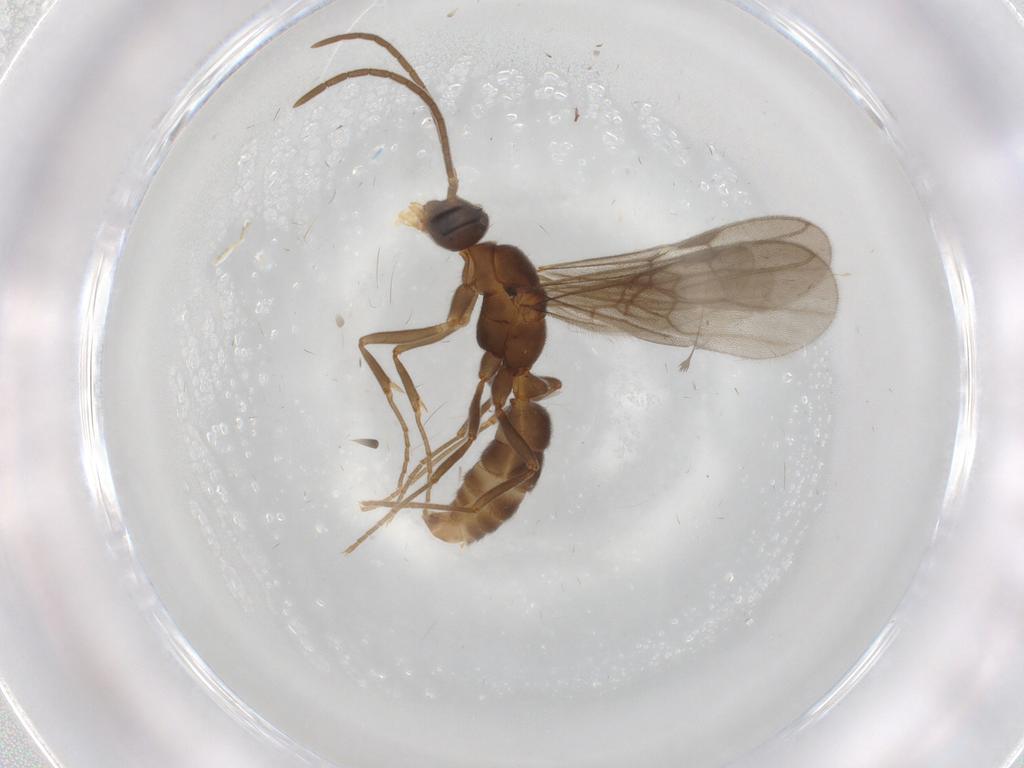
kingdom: Animalia
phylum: Arthropoda
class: Insecta
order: Hymenoptera
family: Formicidae
